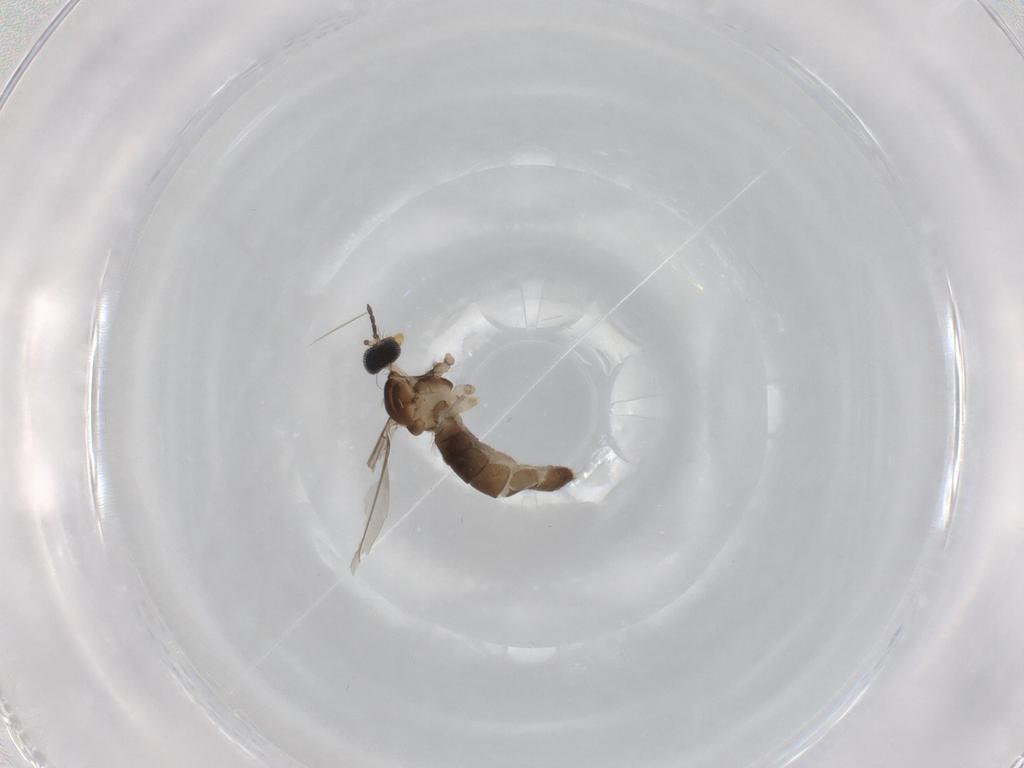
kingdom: Animalia
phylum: Arthropoda
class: Insecta
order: Diptera
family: Cecidomyiidae
